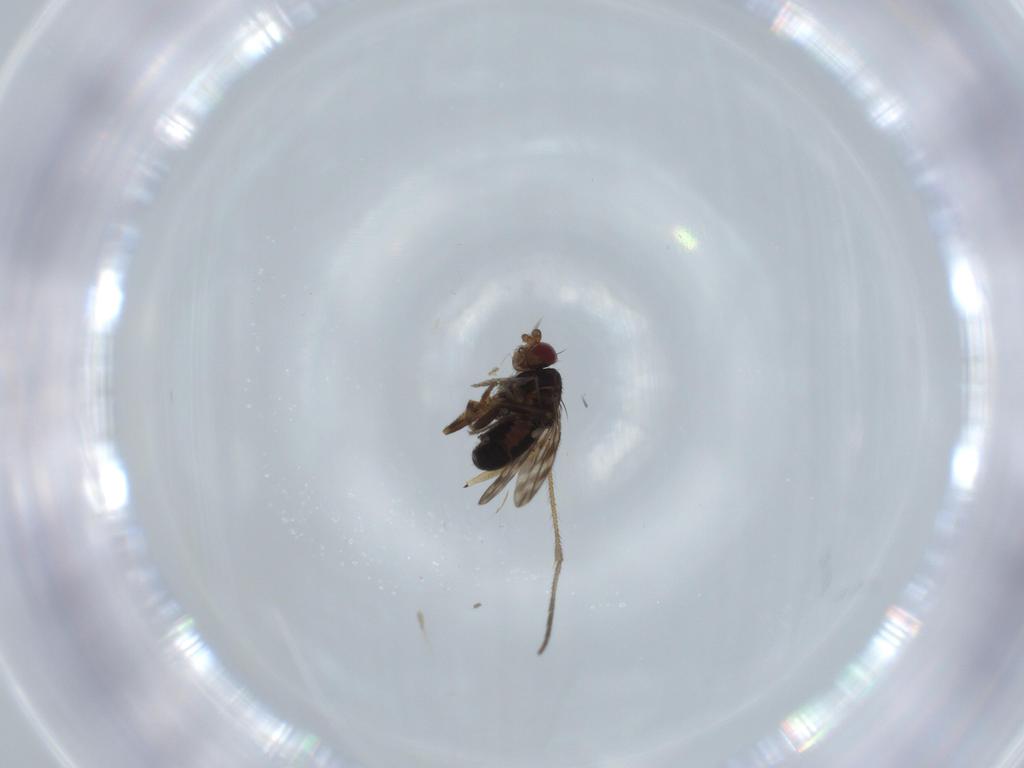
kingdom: Animalia
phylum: Arthropoda
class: Insecta
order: Diptera
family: Sphaeroceridae
